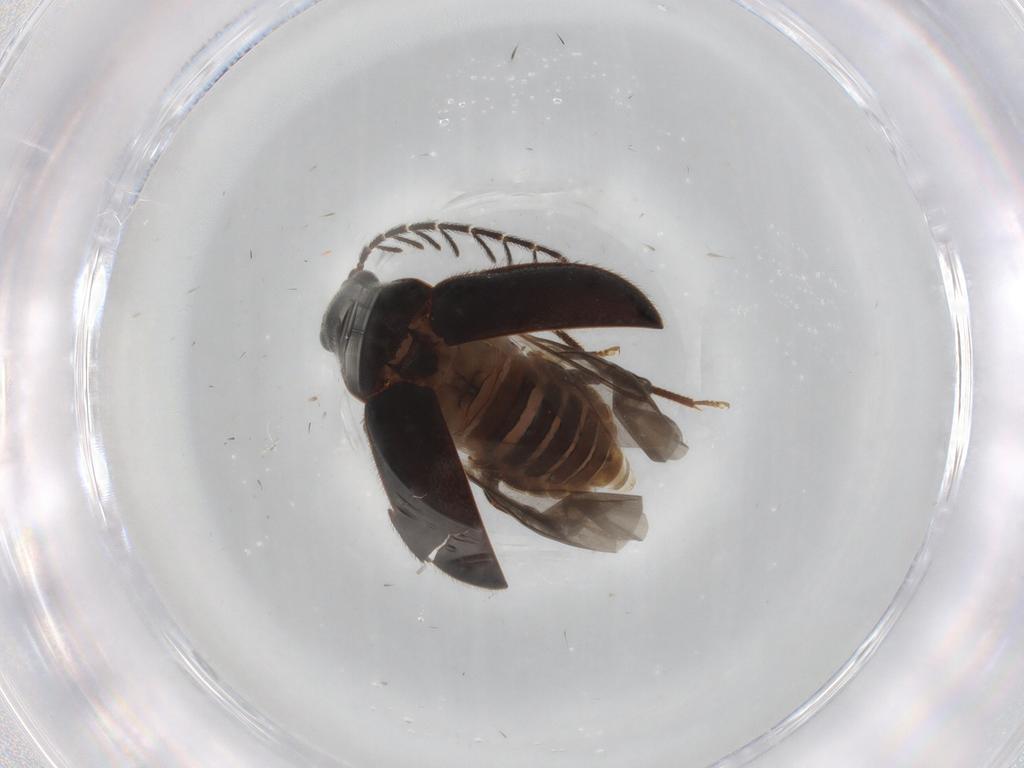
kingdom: Animalia
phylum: Arthropoda
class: Insecta
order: Coleoptera
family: Ptilodactylidae
